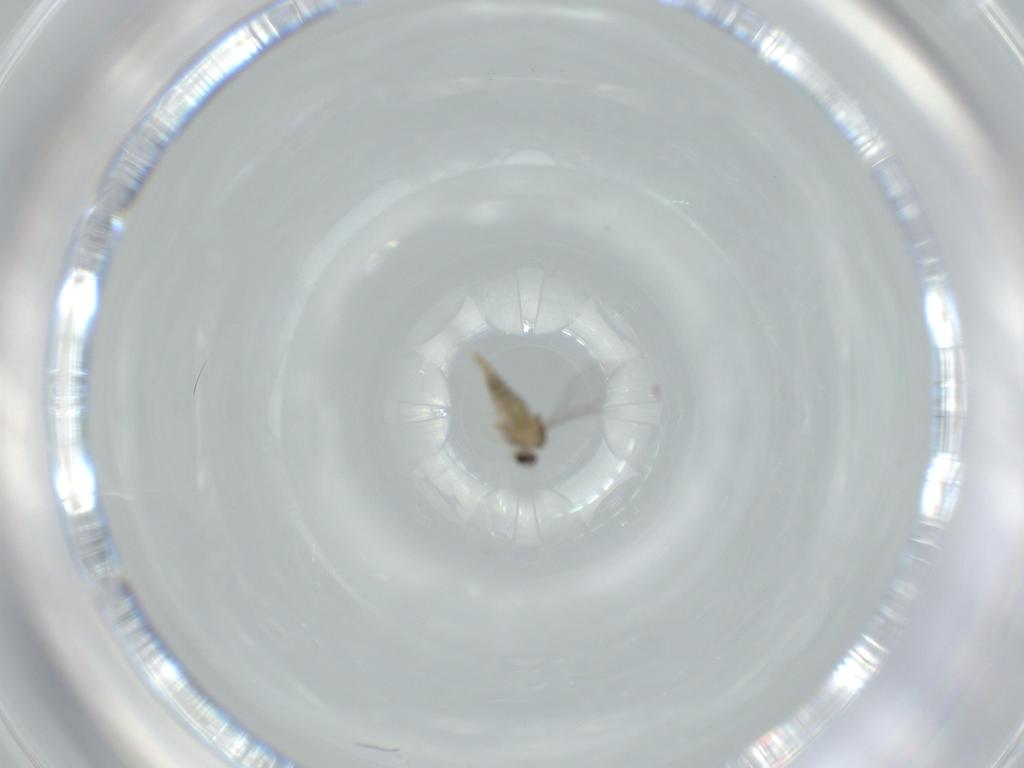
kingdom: Animalia
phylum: Arthropoda
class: Insecta
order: Diptera
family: Cecidomyiidae
